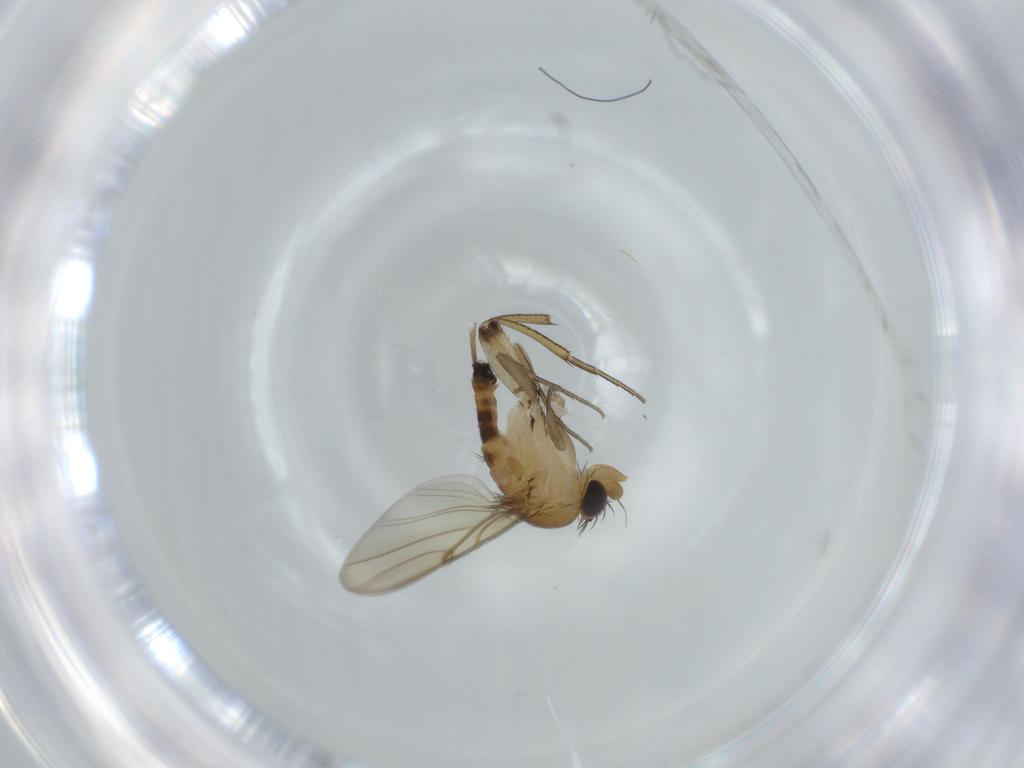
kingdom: Animalia
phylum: Arthropoda
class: Insecta
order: Diptera
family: Phoridae
